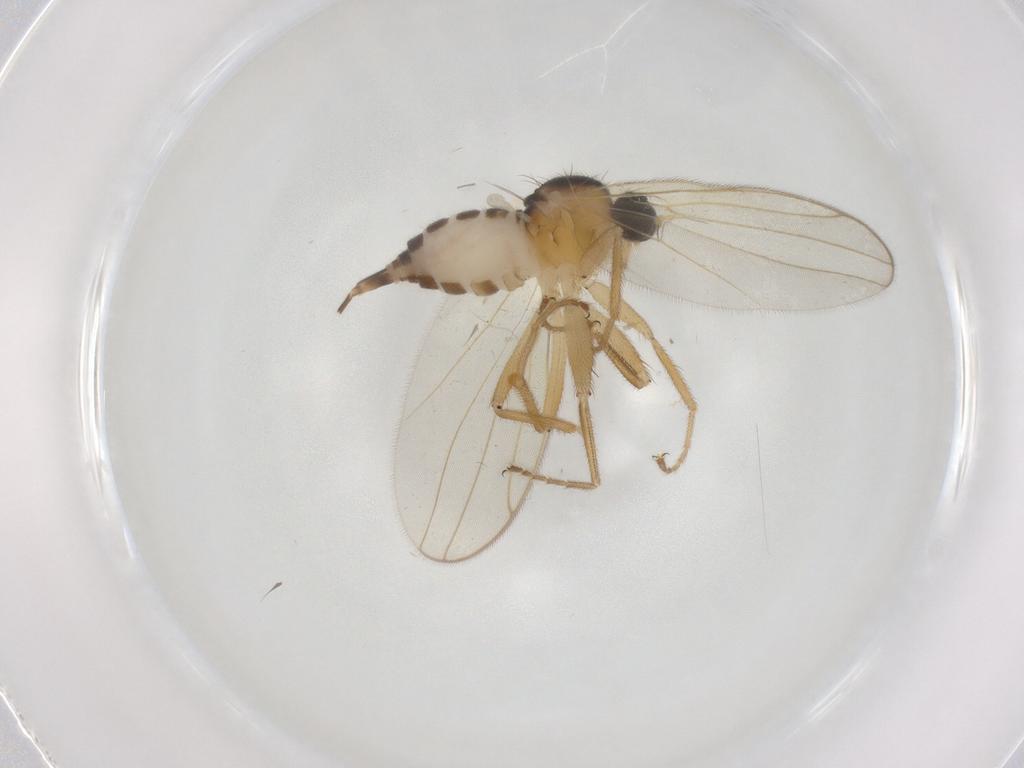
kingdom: Animalia
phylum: Arthropoda
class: Insecta
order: Diptera
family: Hybotidae
